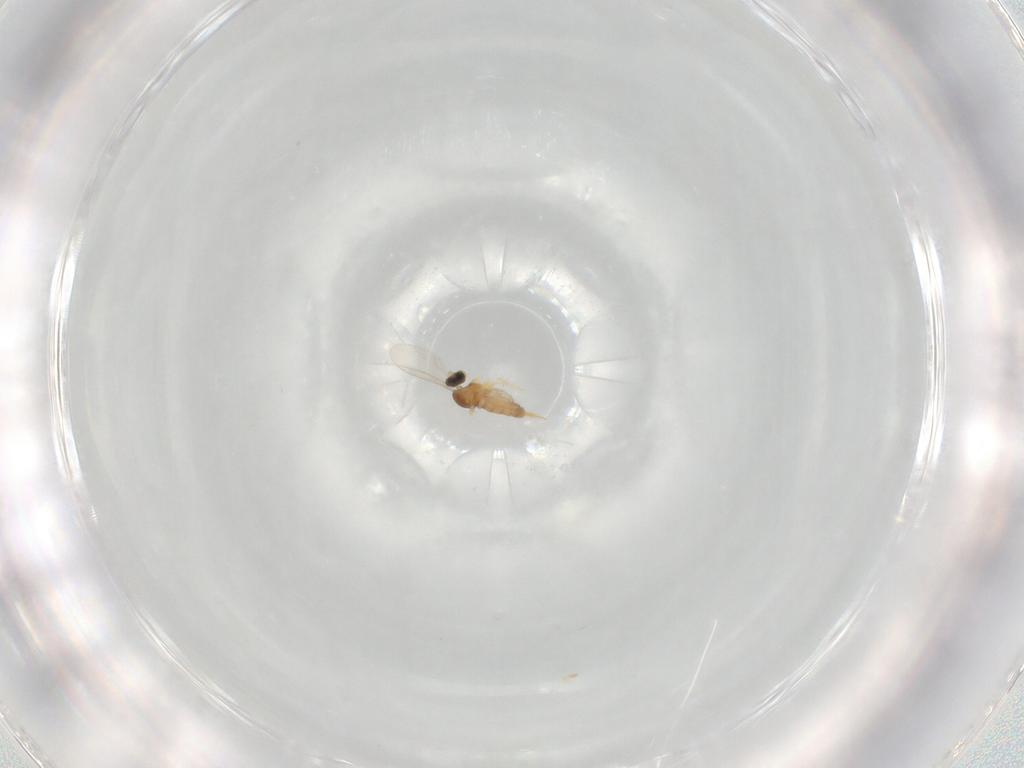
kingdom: Animalia
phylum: Arthropoda
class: Insecta
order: Diptera
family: Cecidomyiidae
